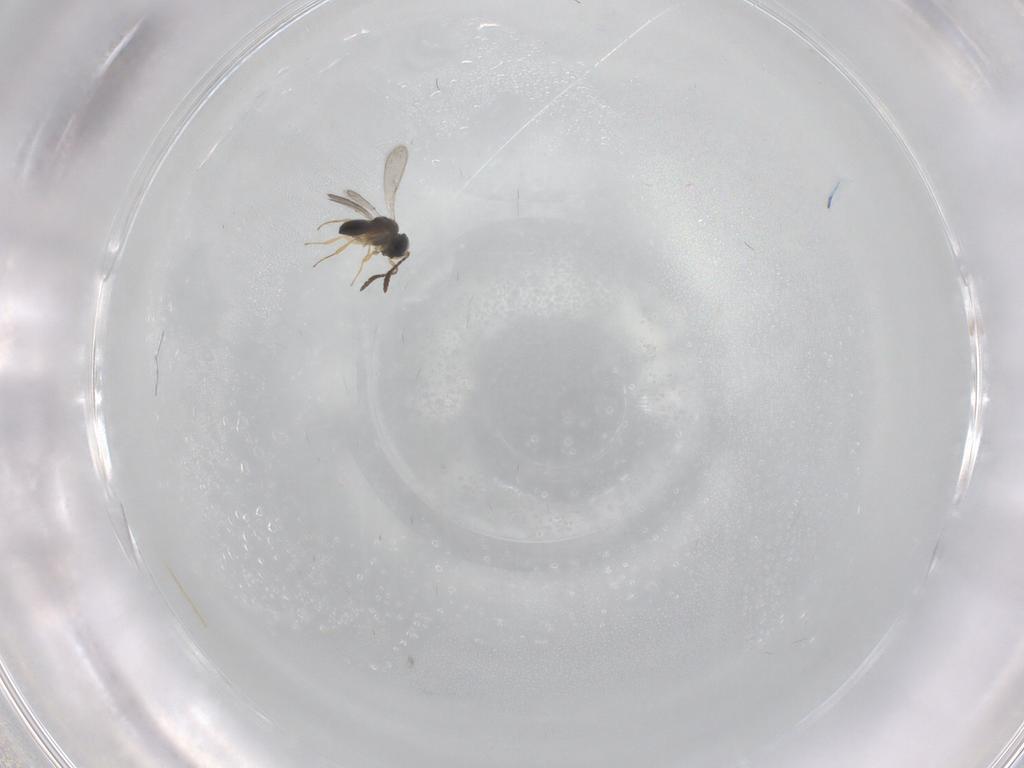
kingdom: Animalia
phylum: Arthropoda
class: Insecta
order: Hymenoptera
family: Scelionidae
